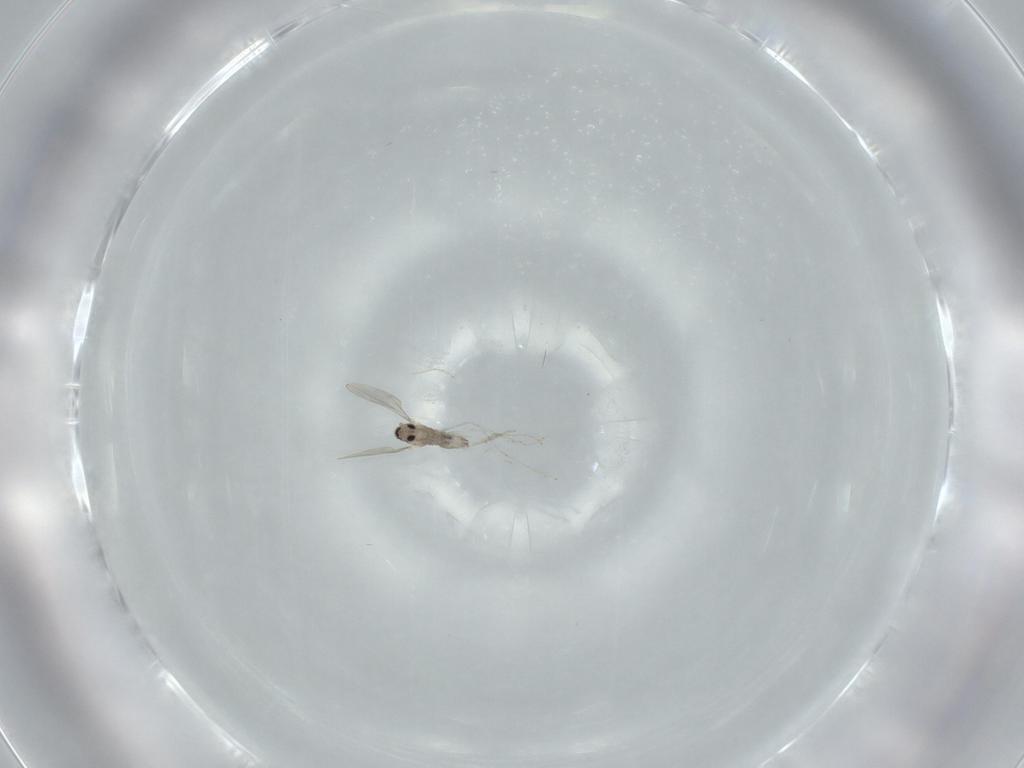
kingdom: Animalia
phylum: Arthropoda
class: Insecta
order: Diptera
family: Cecidomyiidae
